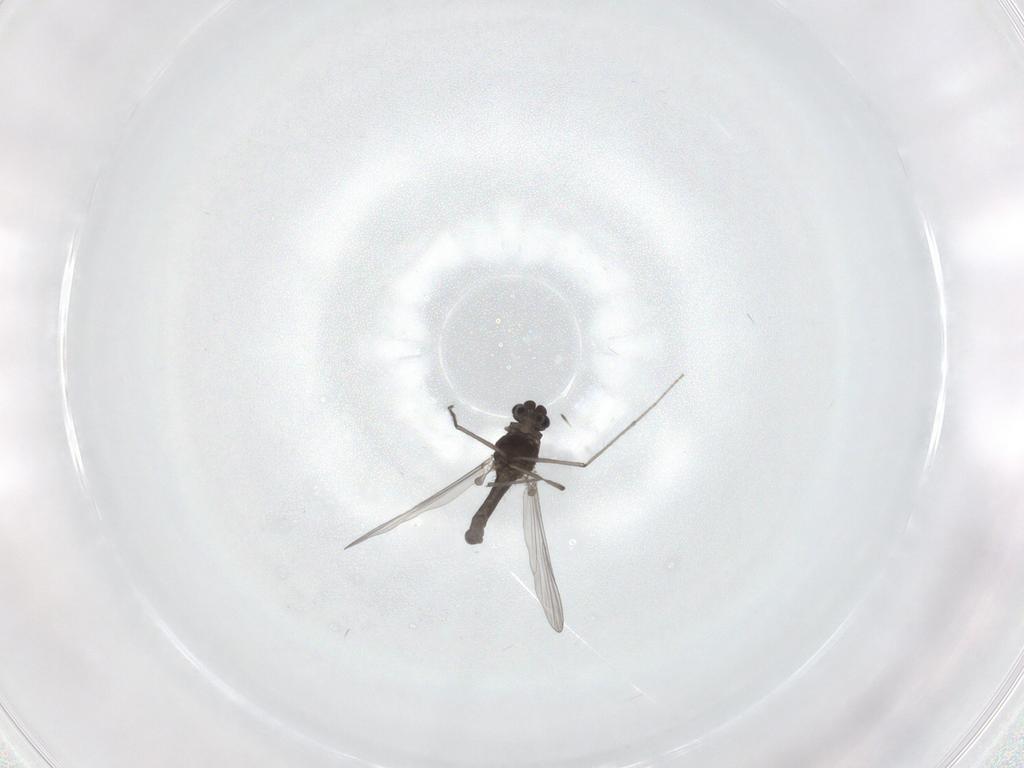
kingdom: Animalia
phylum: Arthropoda
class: Insecta
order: Diptera
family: Chironomidae
